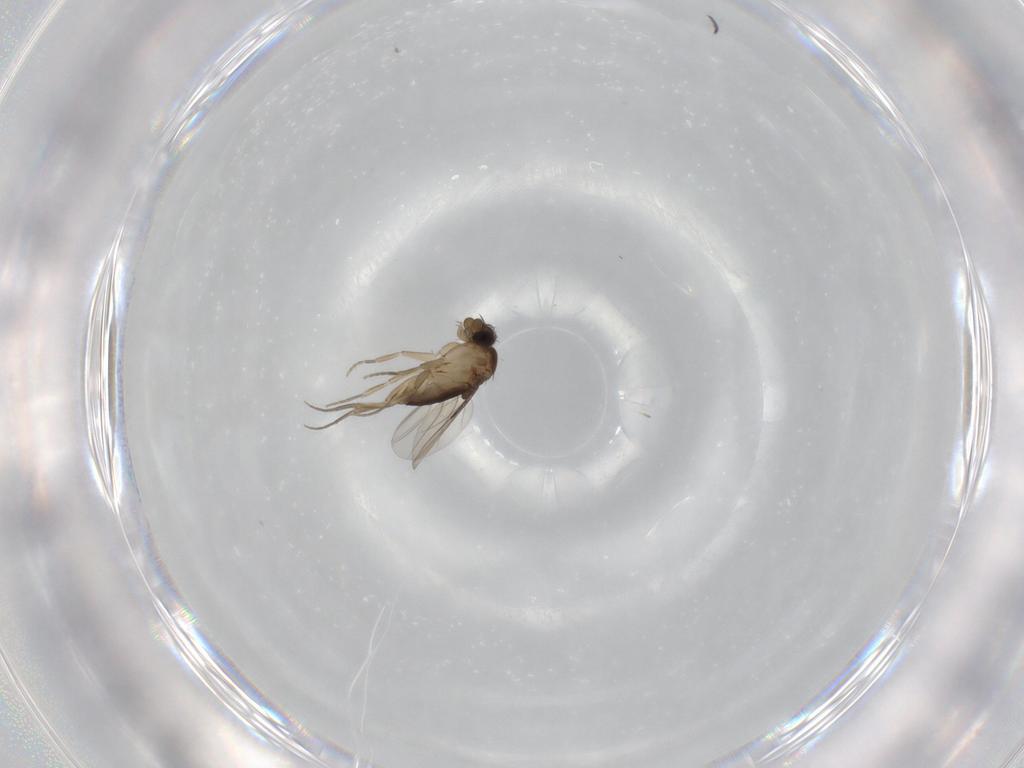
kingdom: Animalia
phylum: Arthropoda
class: Insecta
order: Diptera
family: Phoridae
